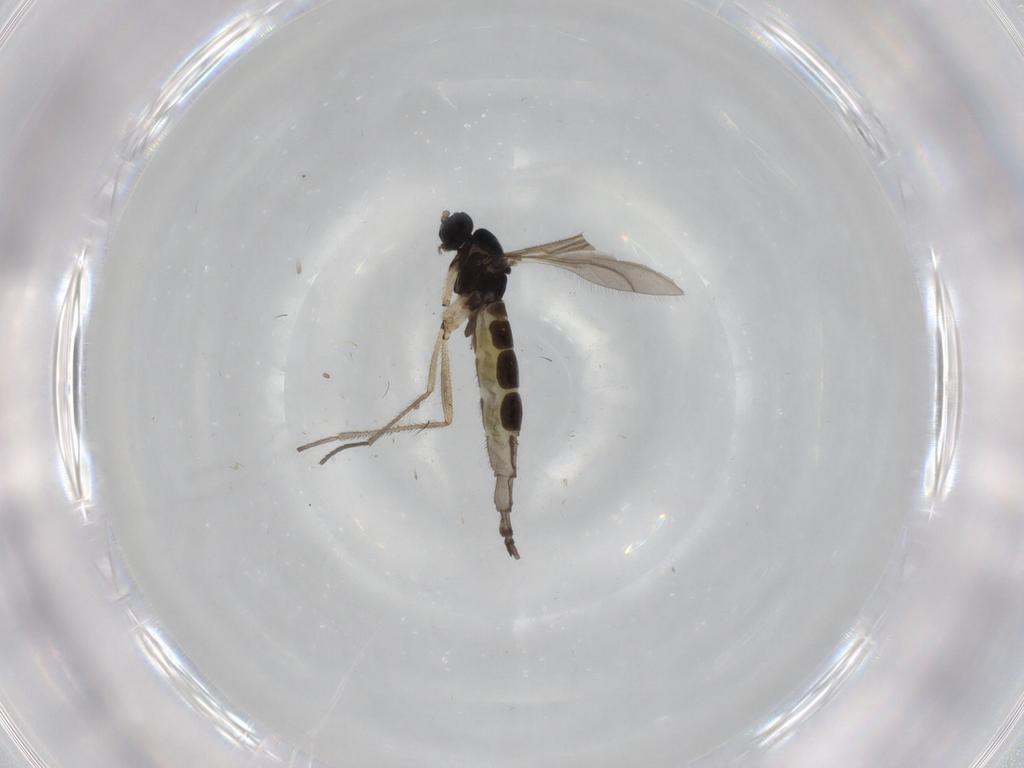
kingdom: Animalia
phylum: Arthropoda
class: Insecta
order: Diptera
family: Sciaridae
